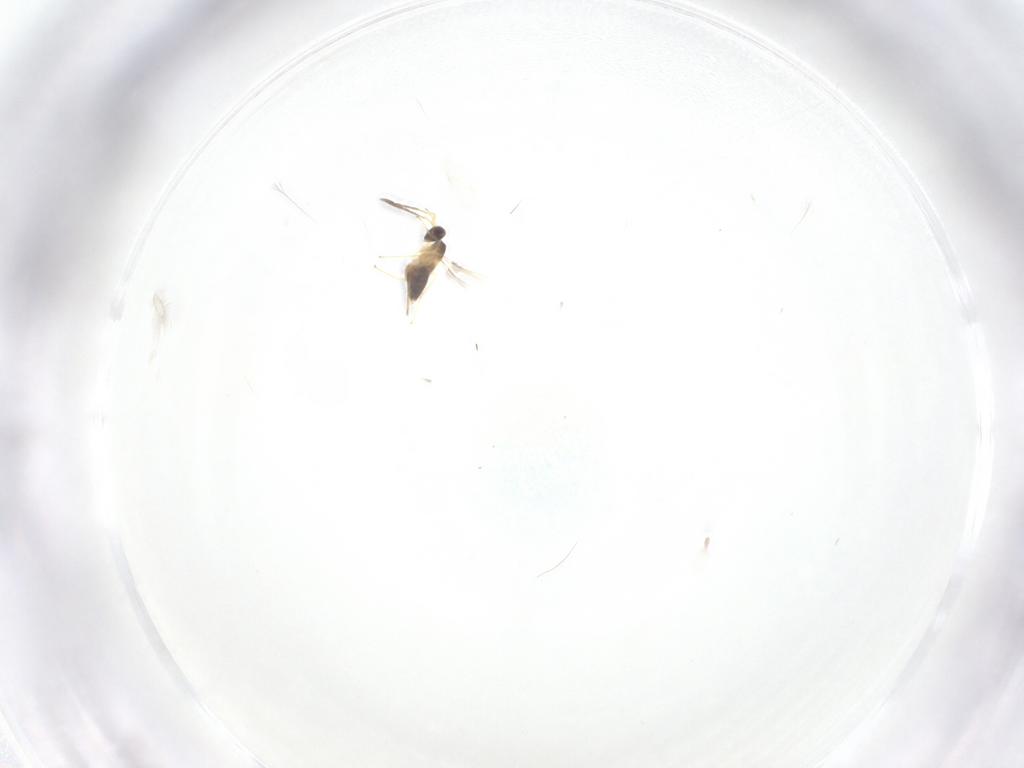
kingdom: Animalia
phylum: Arthropoda
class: Insecta
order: Hymenoptera
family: Mymaridae
